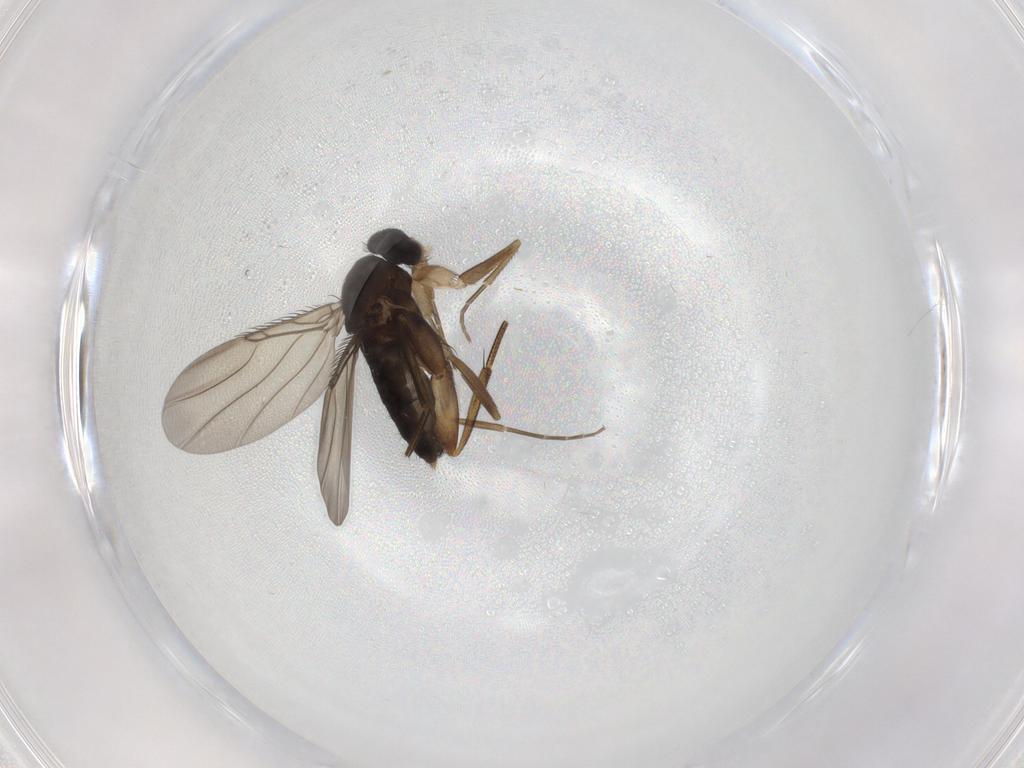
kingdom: Animalia
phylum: Arthropoda
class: Insecta
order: Diptera
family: Phoridae
